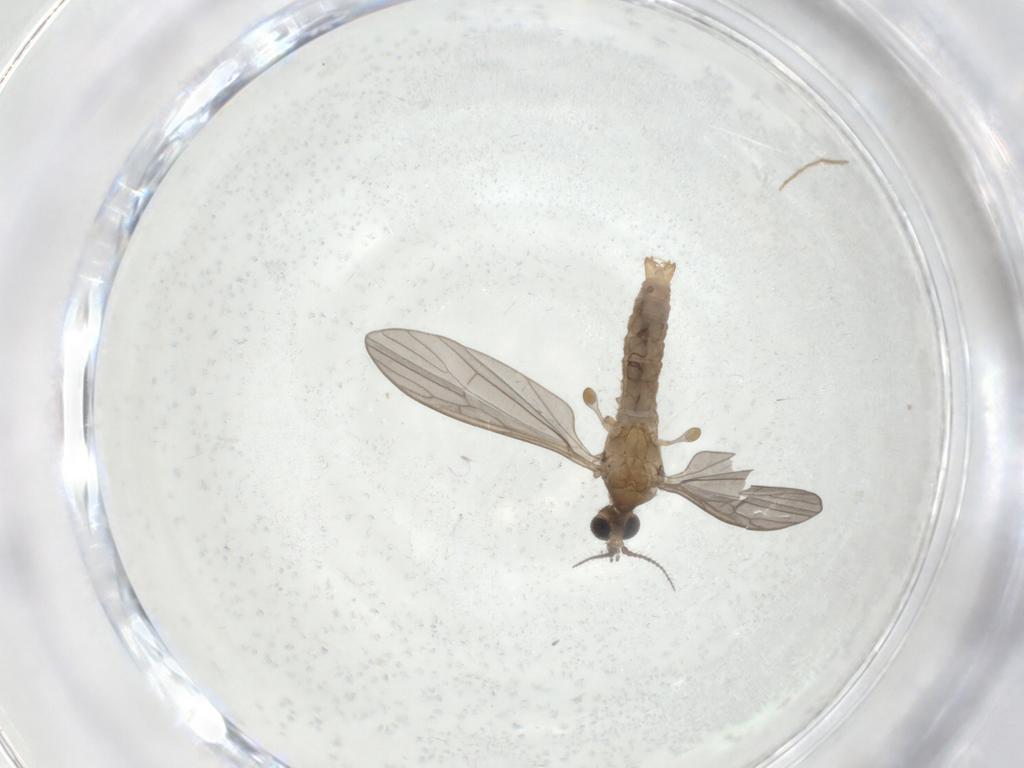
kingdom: Animalia
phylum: Arthropoda
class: Insecta
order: Diptera
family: Limoniidae
